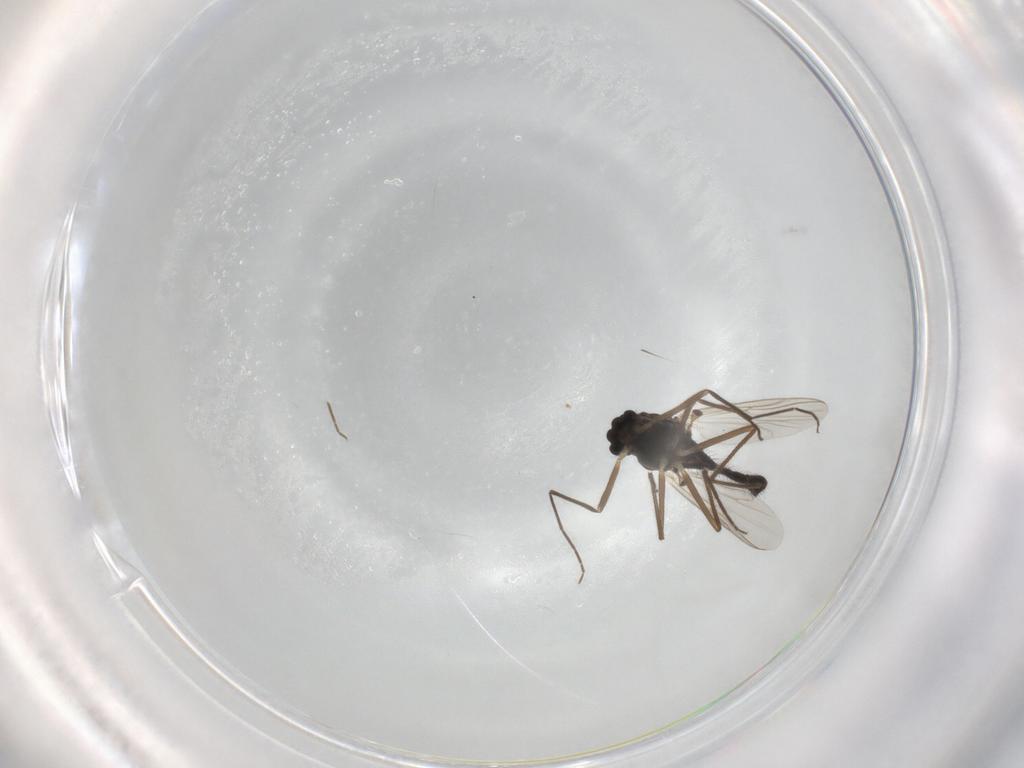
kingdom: Animalia
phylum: Arthropoda
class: Insecta
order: Diptera
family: Chironomidae
